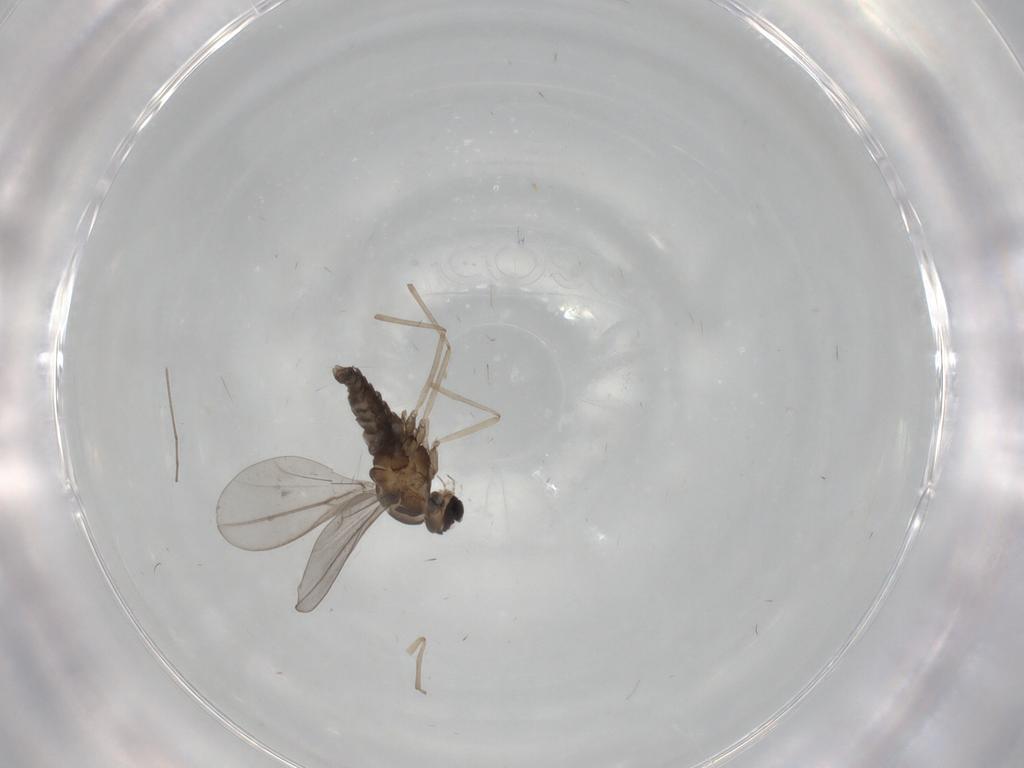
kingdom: Animalia
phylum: Arthropoda
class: Insecta
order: Diptera
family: Cecidomyiidae
